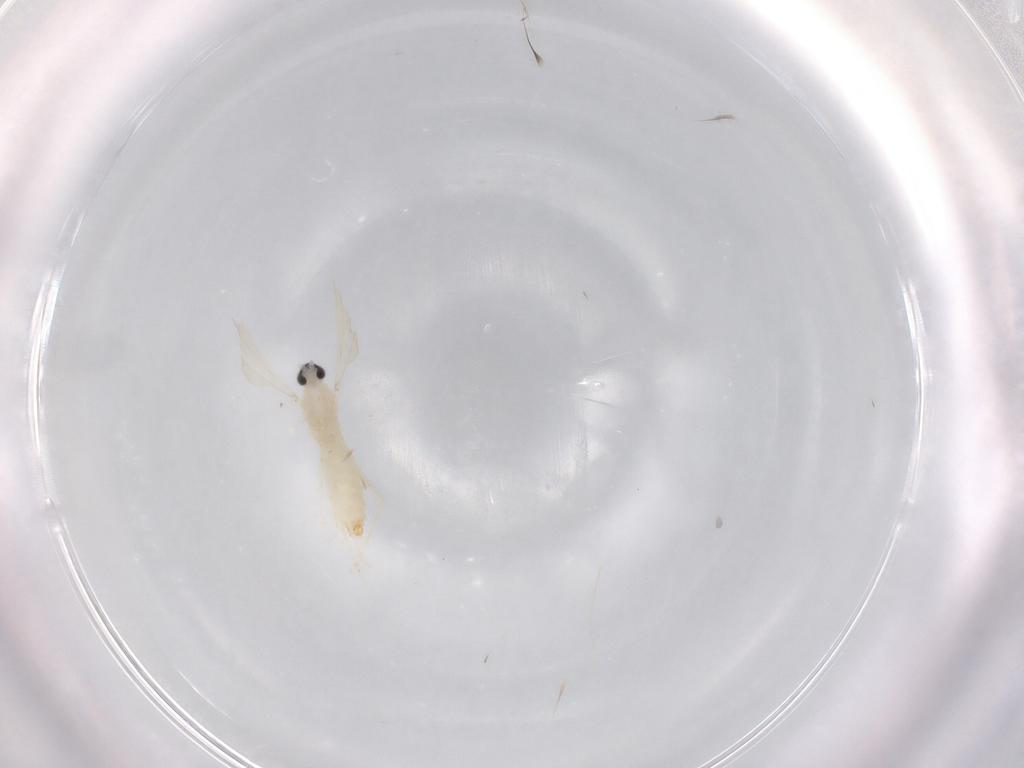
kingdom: Animalia
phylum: Arthropoda
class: Insecta
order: Diptera
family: Cecidomyiidae
